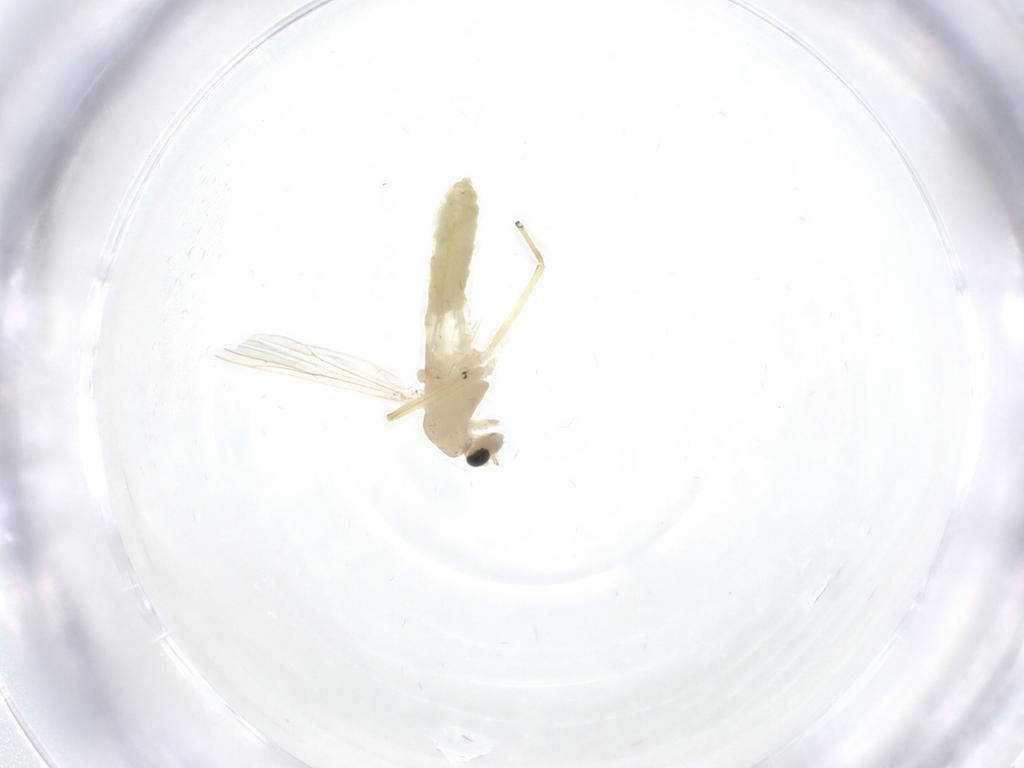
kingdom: Animalia
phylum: Arthropoda
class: Insecta
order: Diptera
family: Chironomidae
